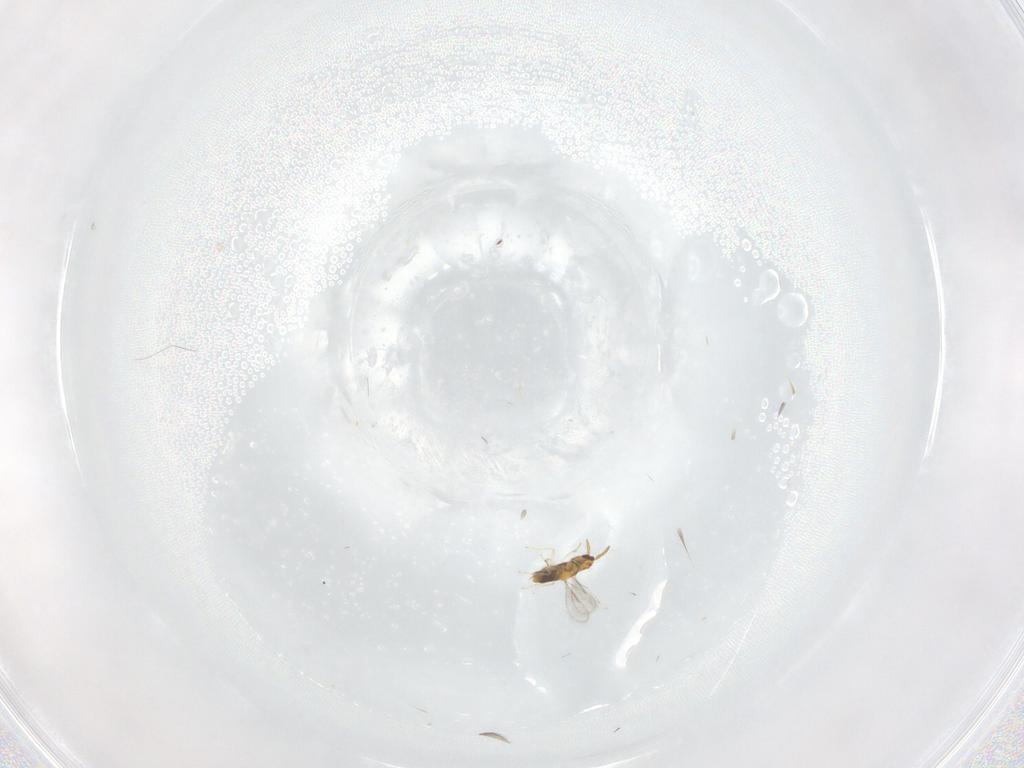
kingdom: Animalia
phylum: Arthropoda
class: Insecta
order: Hymenoptera
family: Aphelinidae
